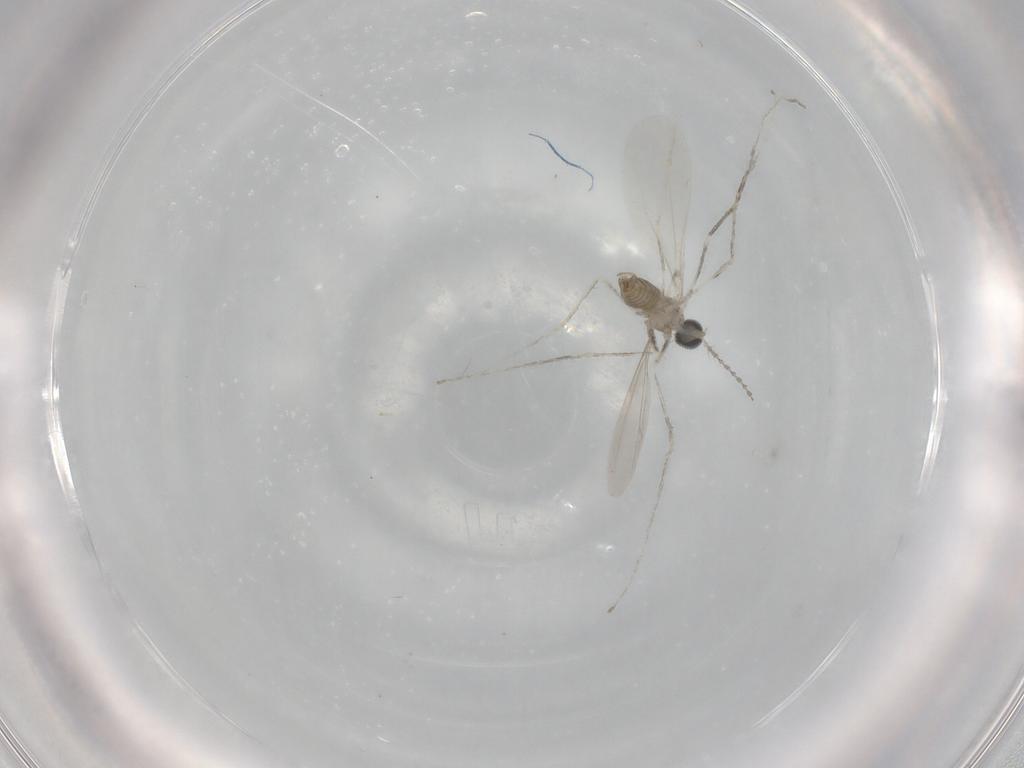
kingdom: Animalia
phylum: Arthropoda
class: Insecta
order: Diptera
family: Cecidomyiidae
